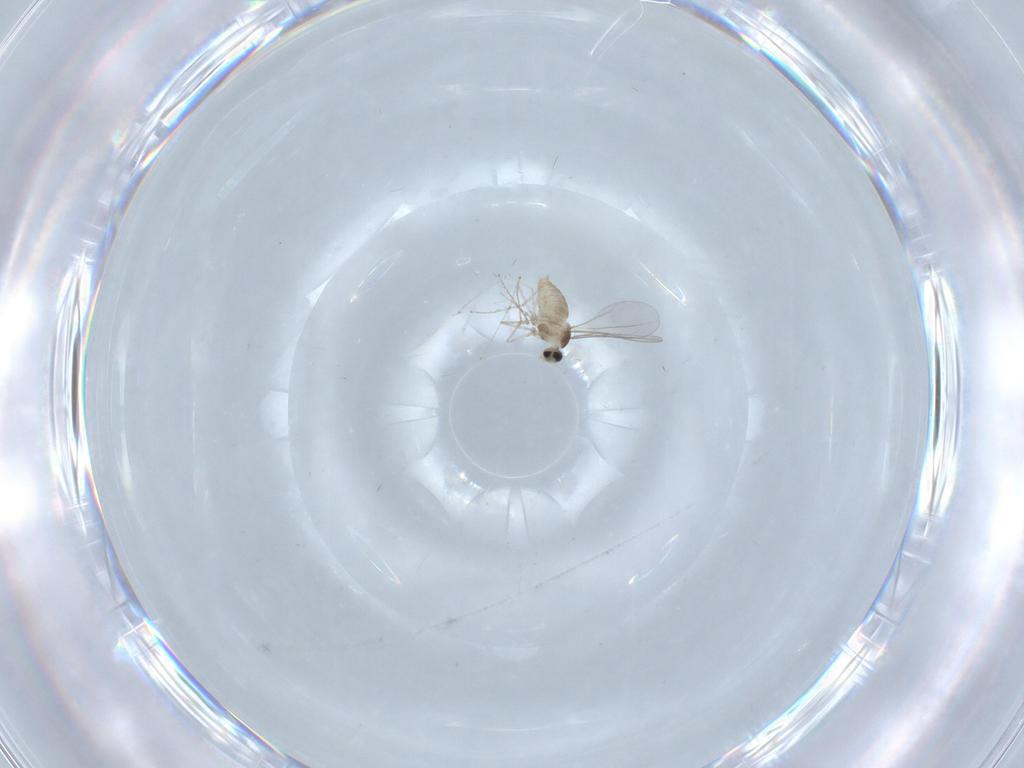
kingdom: Animalia
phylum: Arthropoda
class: Insecta
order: Diptera
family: Cecidomyiidae
